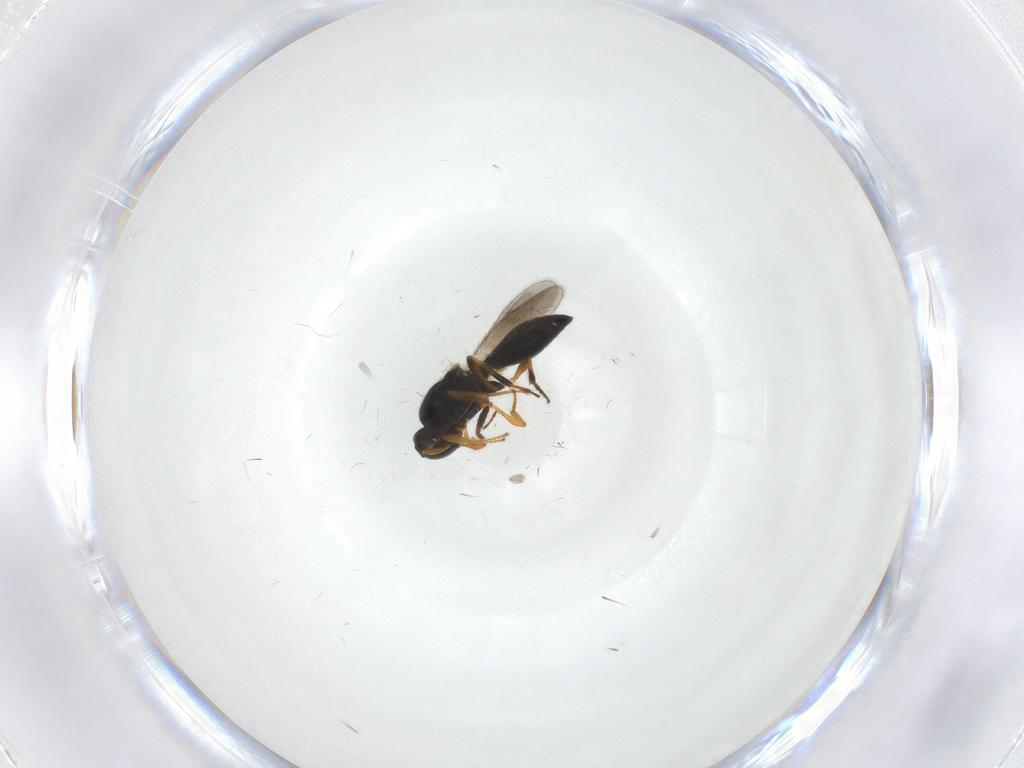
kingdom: Animalia
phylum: Arthropoda
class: Insecta
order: Hymenoptera
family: Platygastridae
